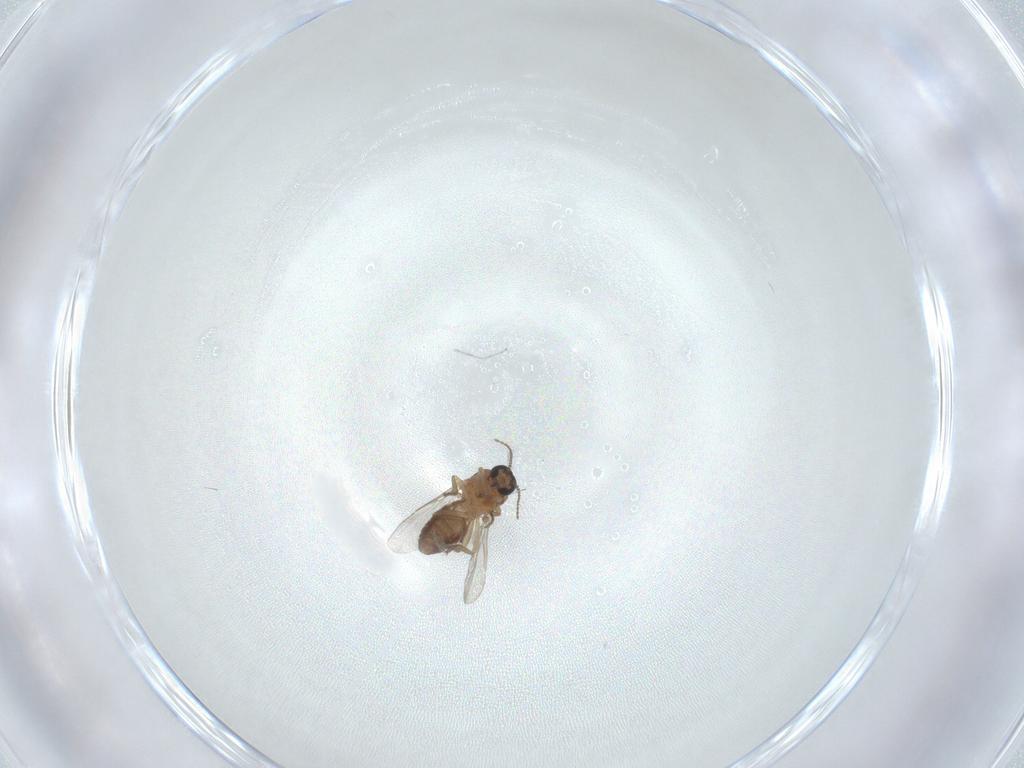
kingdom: Animalia
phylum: Arthropoda
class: Insecta
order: Diptera
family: Ceratopogonidae
